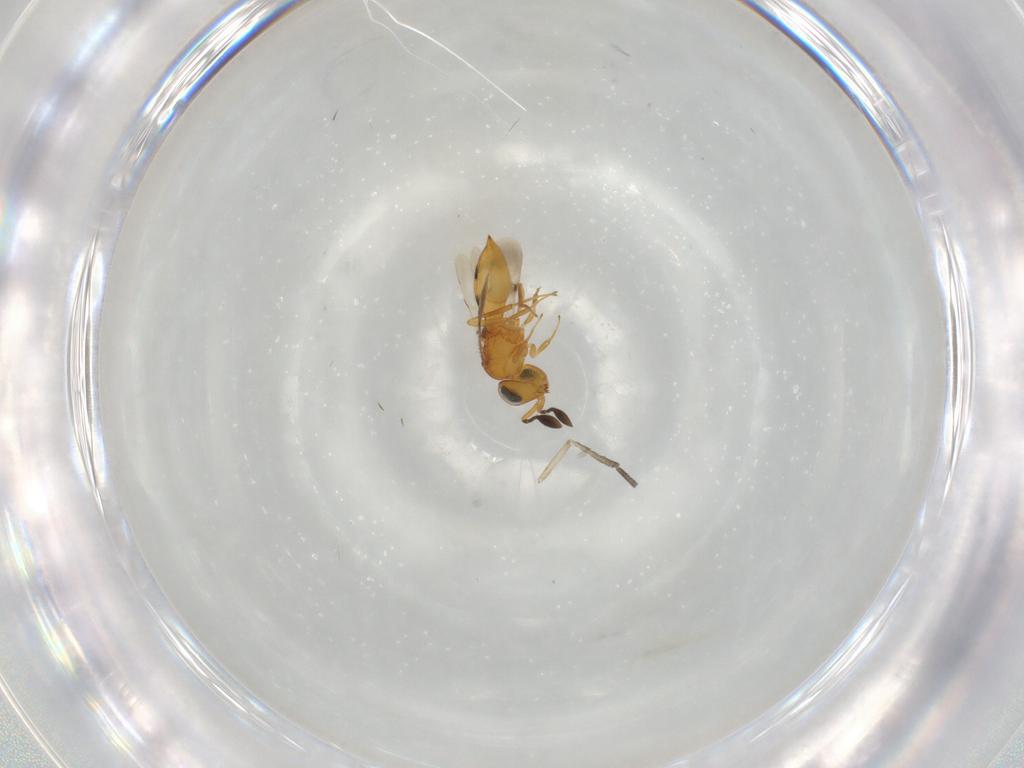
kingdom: Animalia
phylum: Arthropoda
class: Insecta
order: Hymenoptera
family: Scelionidae
